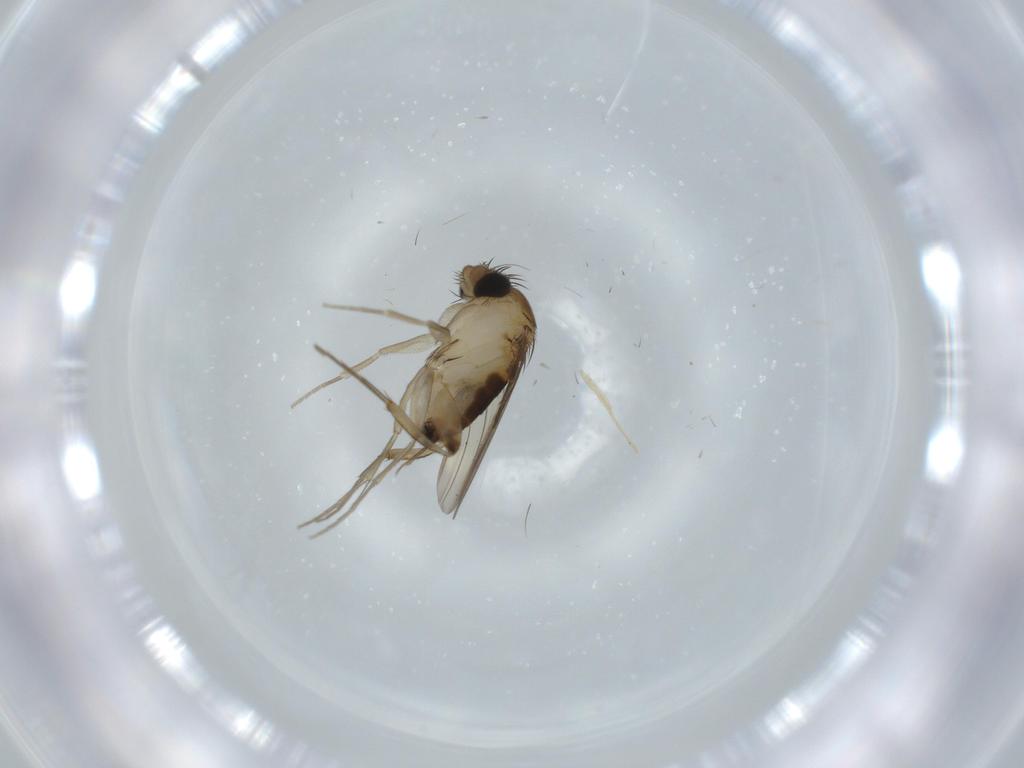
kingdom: Animalia
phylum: Arthropoda
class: Insecta
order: Diptera
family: Phoridae
